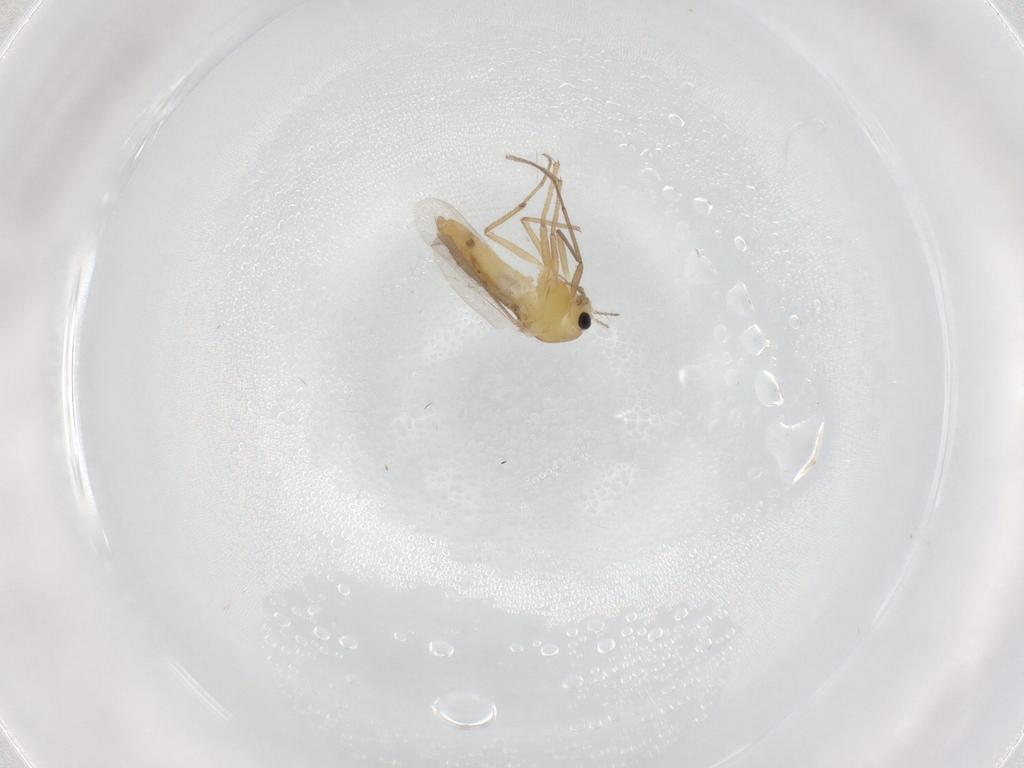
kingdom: Animalia
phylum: Arthropoda
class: Insecta
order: Diptera
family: Chironomidae
